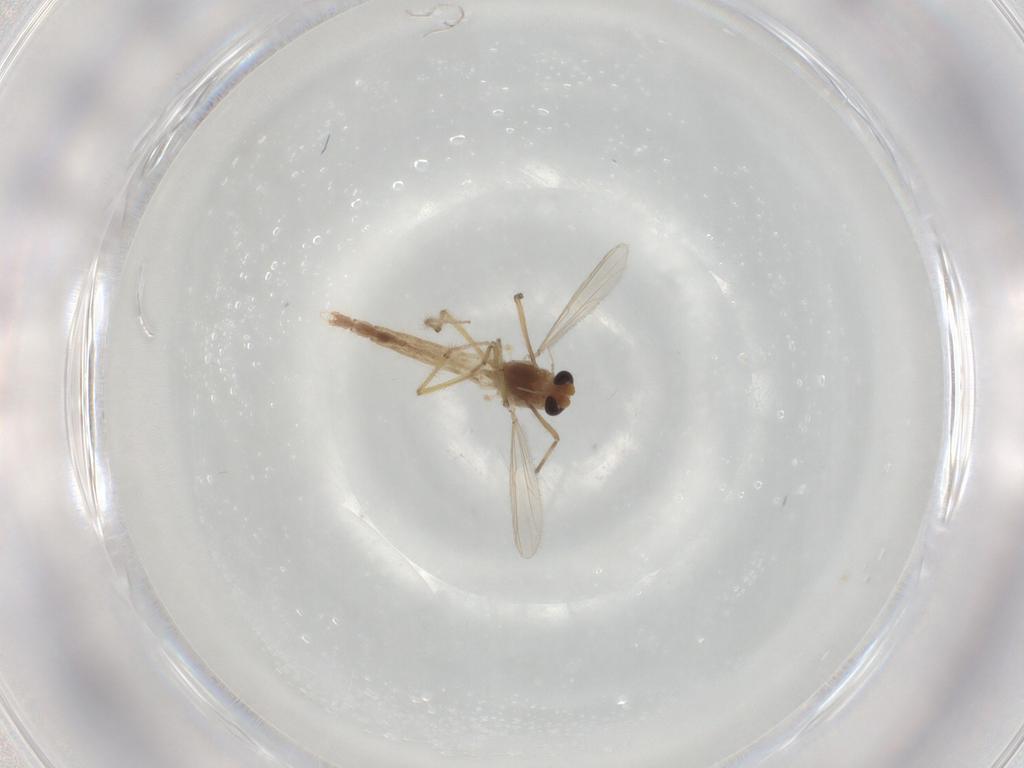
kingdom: Animalia
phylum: Arthropoda
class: Insecta
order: Diptera
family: Chironomidae
